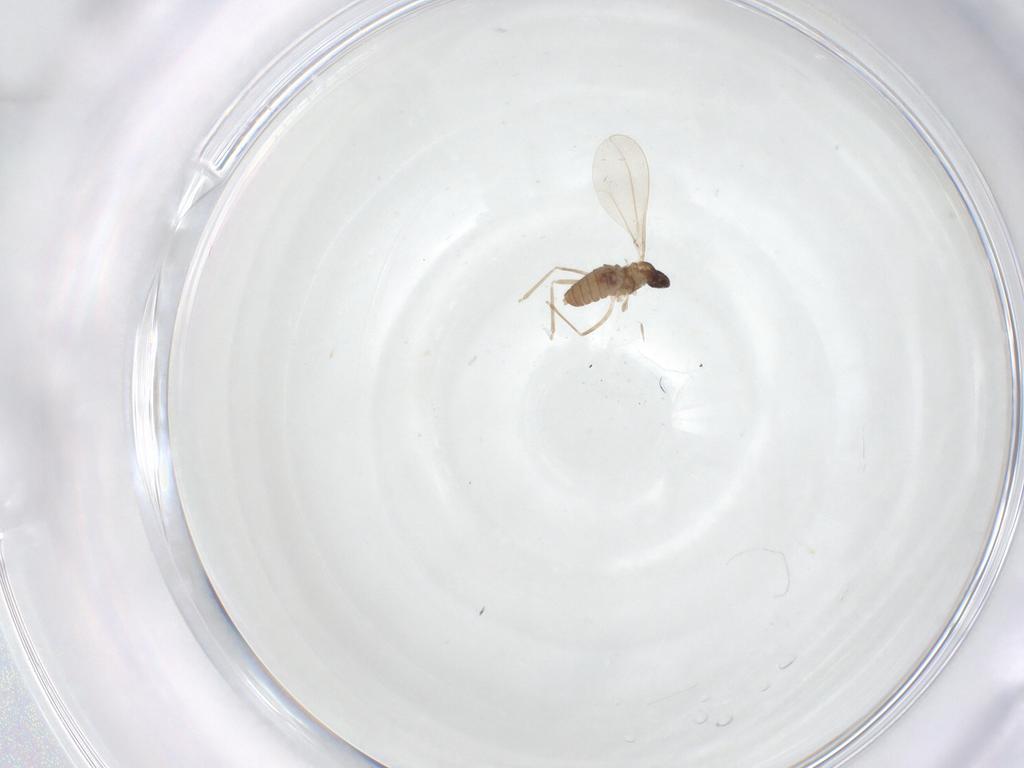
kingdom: Animalia
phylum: Arthropoda
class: Insecta
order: Diptera
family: Cecidomyiidae
